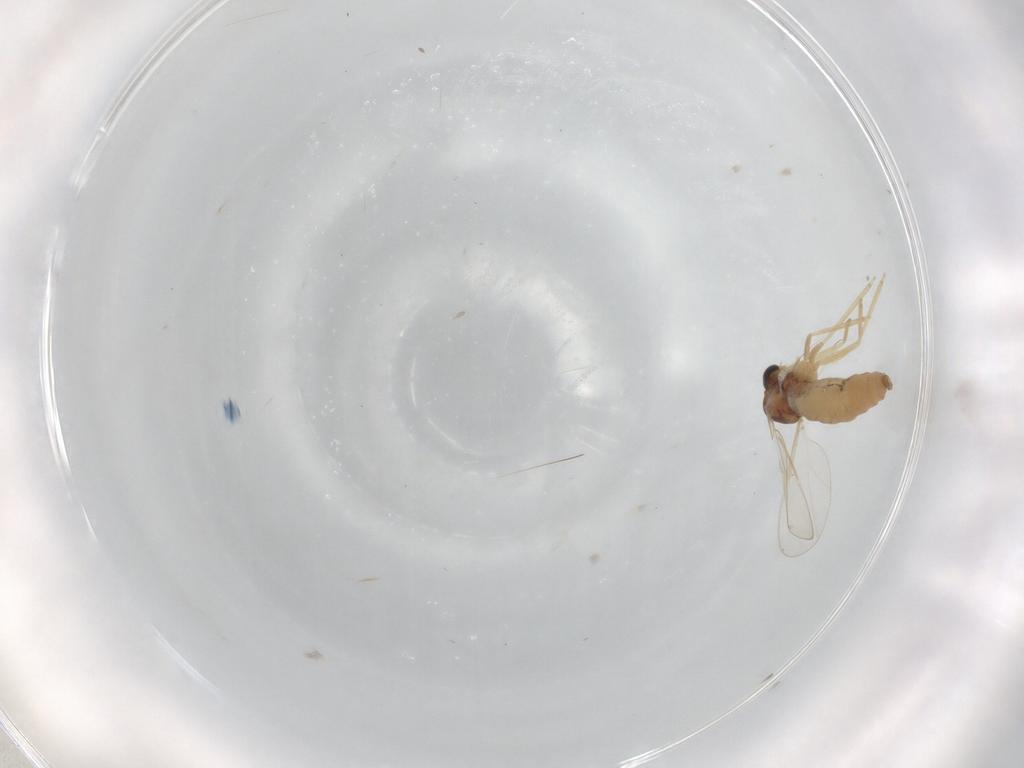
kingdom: Animalia
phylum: Arthropoda
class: Insecta
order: Diptera
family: Cecidomyiidae
